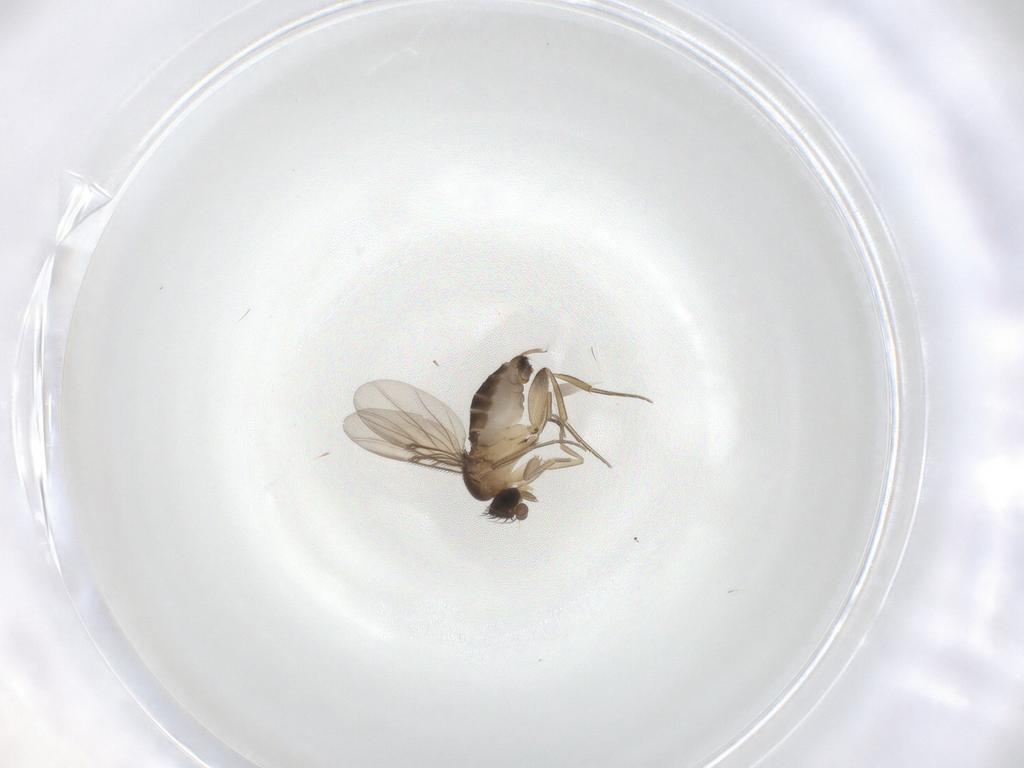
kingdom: Animalia
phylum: Arthropoda
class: Insecta
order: Diptera
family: Phoridae
